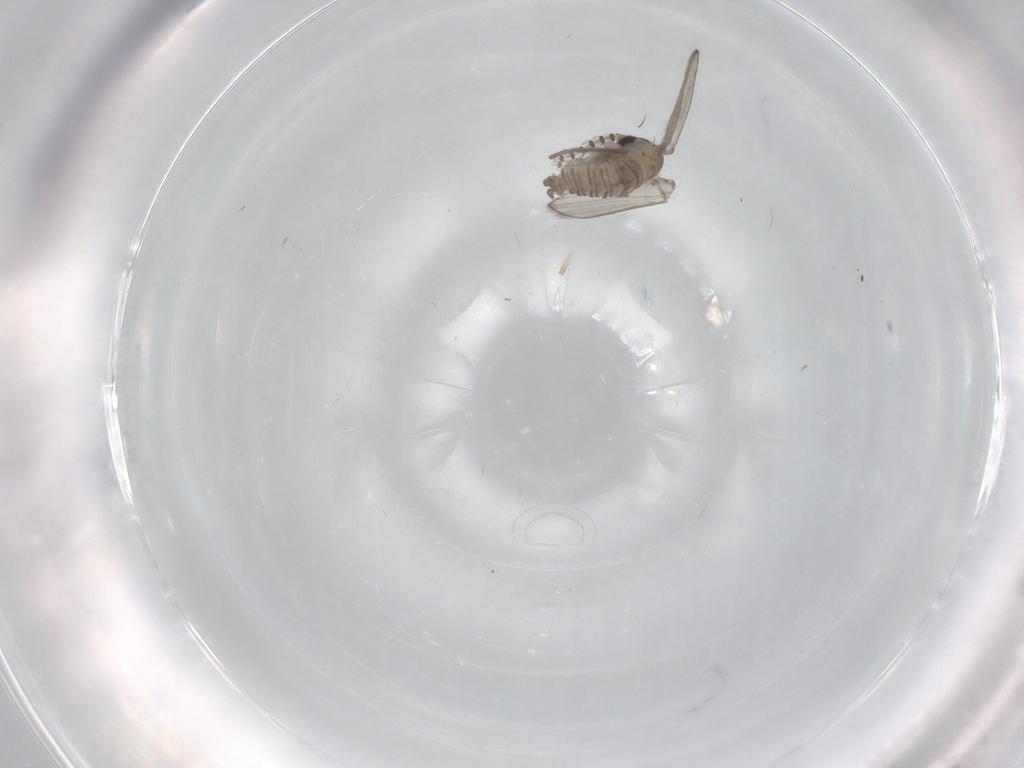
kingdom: Animalia
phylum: Arthropoda
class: Insecta
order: Diptera
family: Psychodidae
